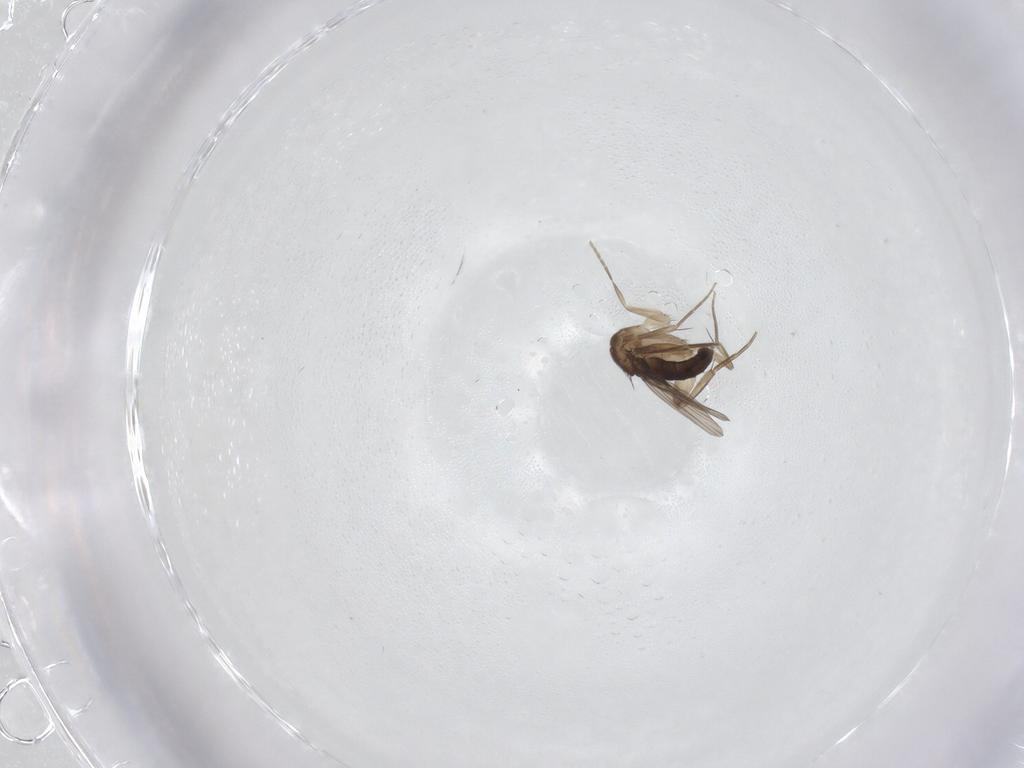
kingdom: Animalia
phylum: Arthropoda
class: Insecta
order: Diptera
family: Phoridae
